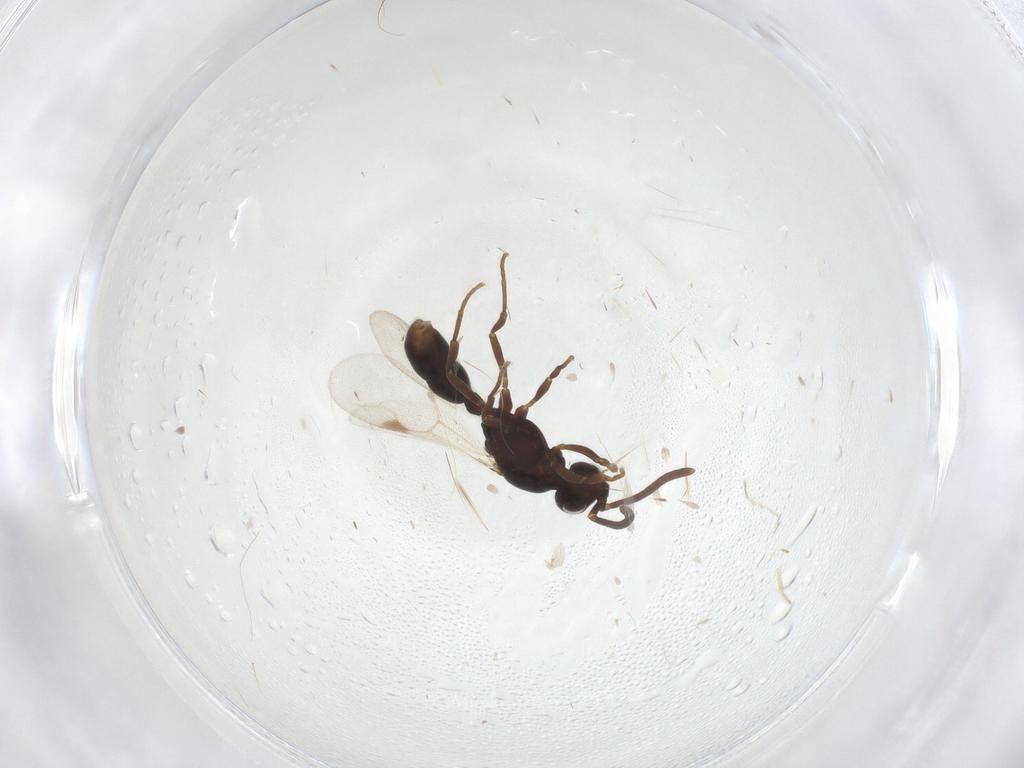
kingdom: Animalia
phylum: Arthropoda
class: Insecta
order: Hymenoptera
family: Formicidae
